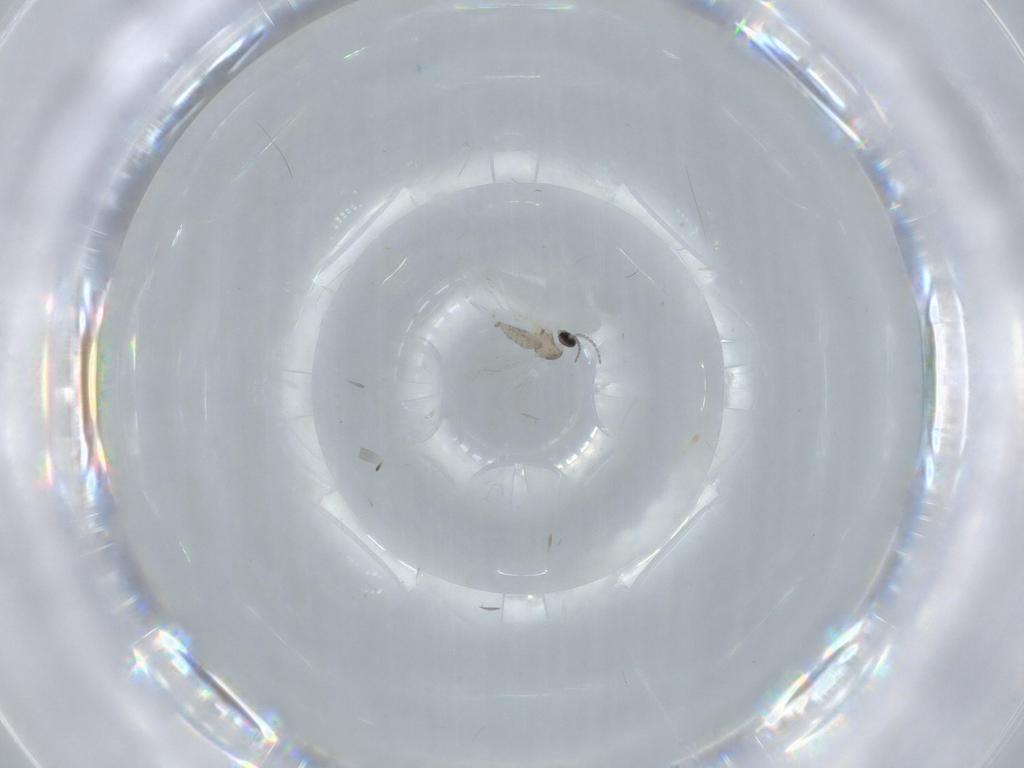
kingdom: Animalia
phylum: Arthropoda
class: Insecta
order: Diptera
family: Cecidomyiidae
